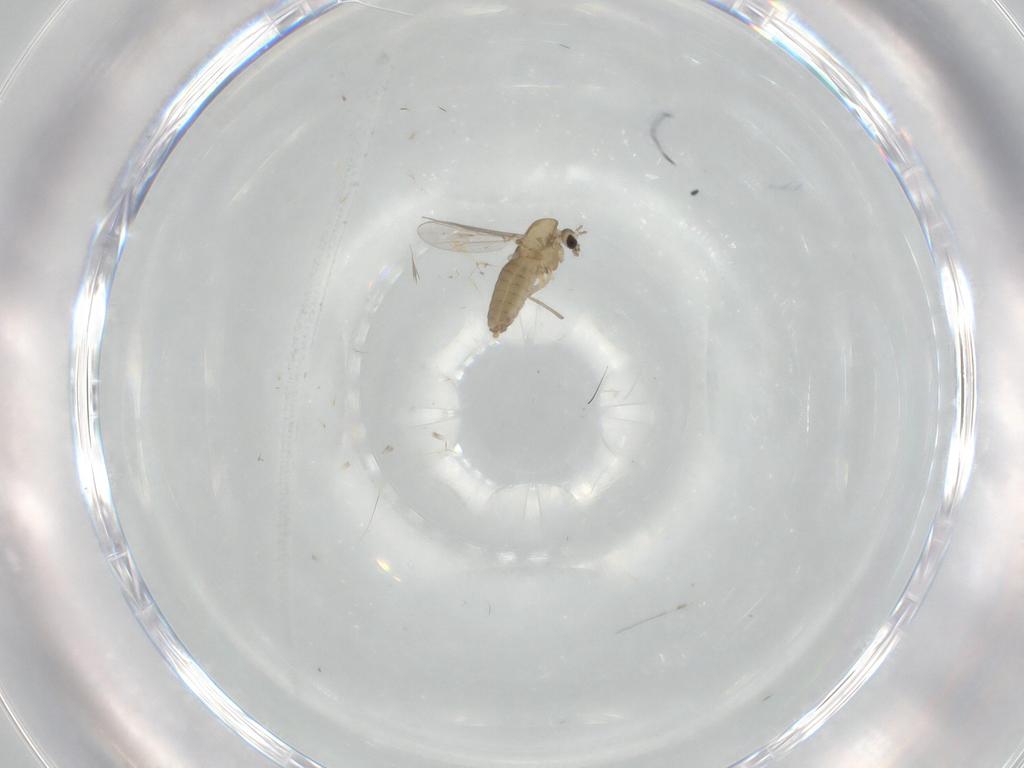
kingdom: Animalia
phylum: Arthropoda
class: Insecta
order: Diptera
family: Chironomidae
